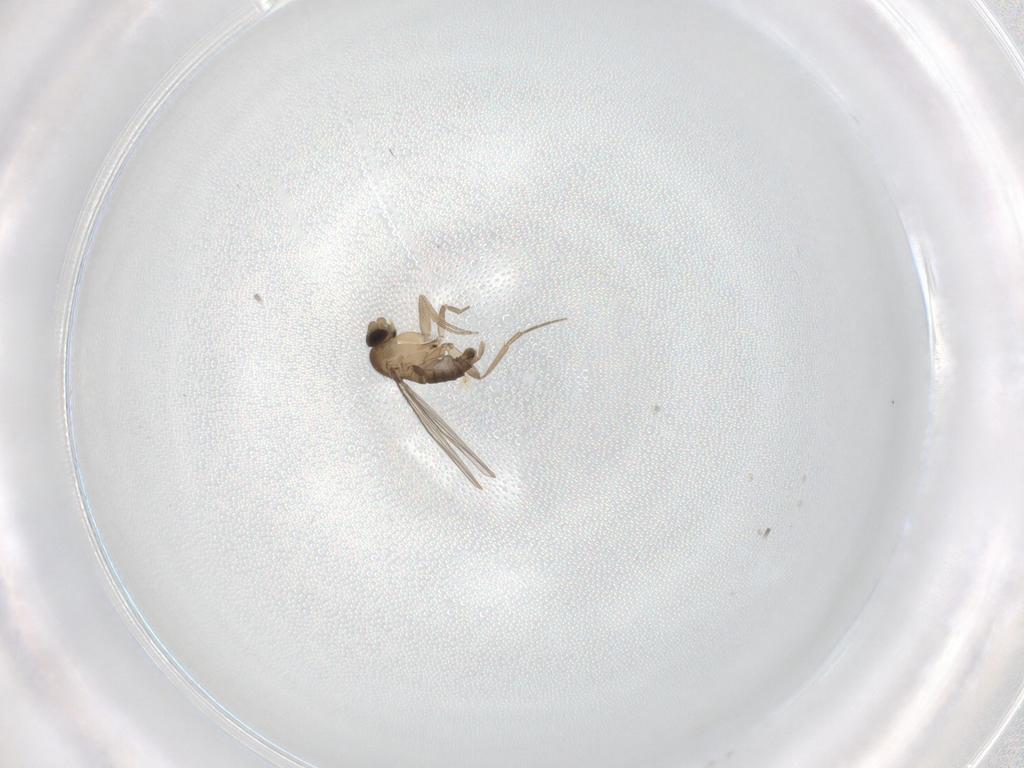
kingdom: Animalia
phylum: Arthropoda
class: Insecta
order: Diptera
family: Phoridae
